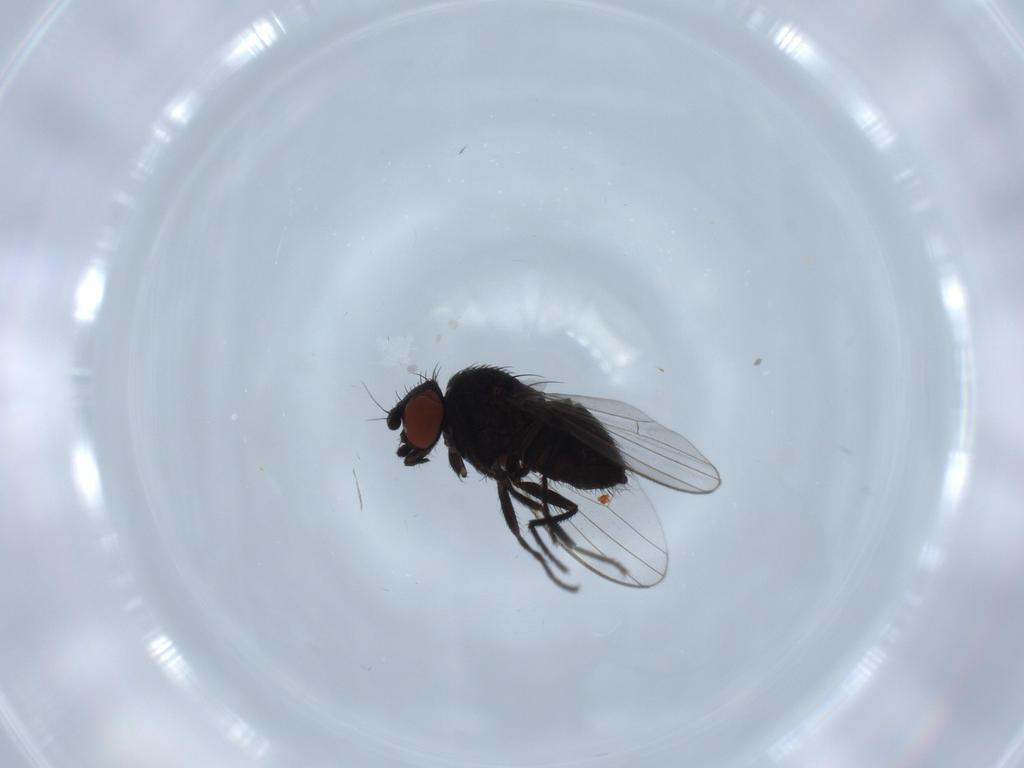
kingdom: Animalia
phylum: Arthropoda
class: Insecta
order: Diptera
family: Milichiidae
